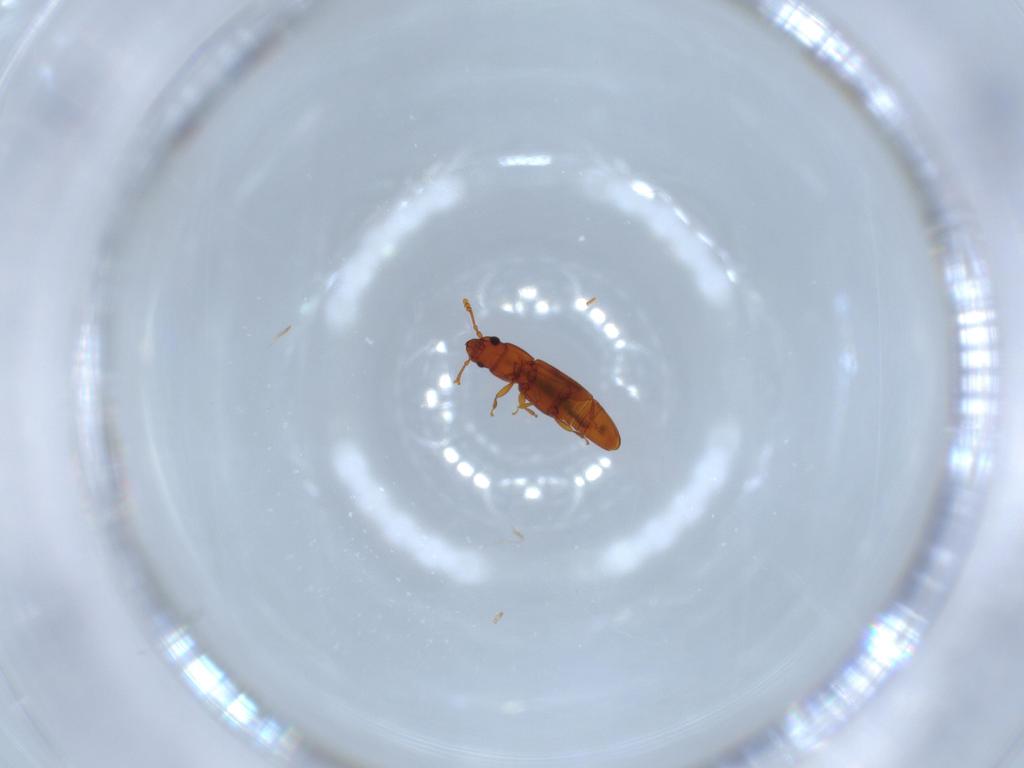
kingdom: Animalia
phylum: Arthropoda
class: Insecta
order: Coleoptera
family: Smicripidae
